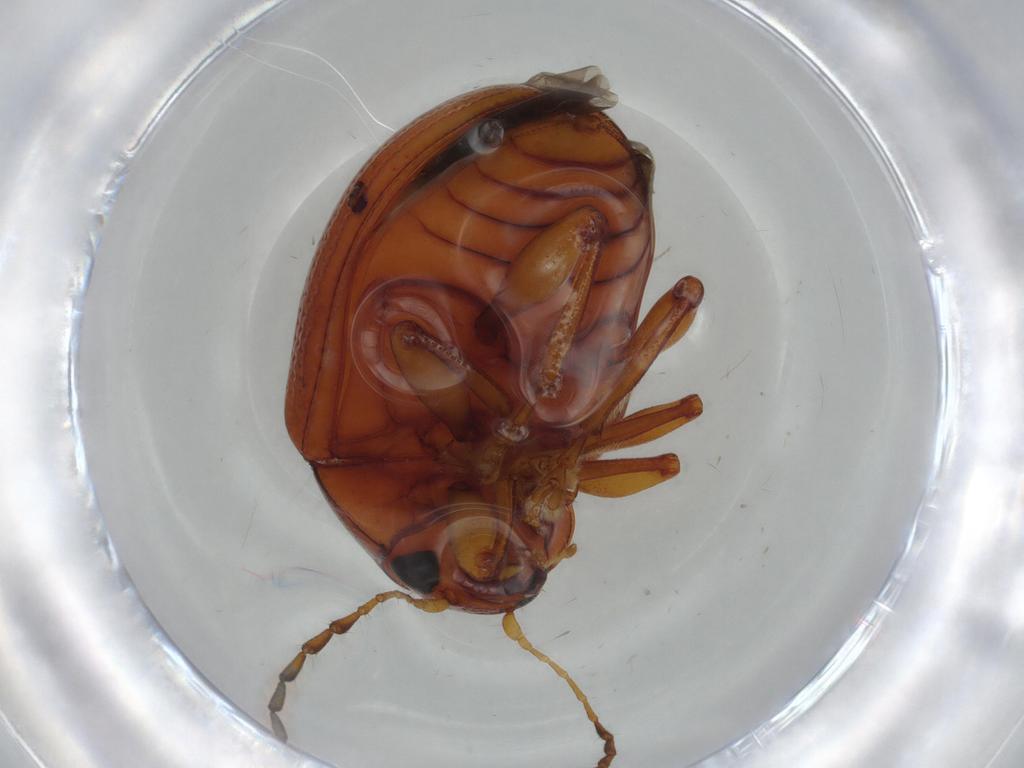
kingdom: Animalia
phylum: Arthropoda
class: Insecta
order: Coleoptera
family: Chrysomelidae
